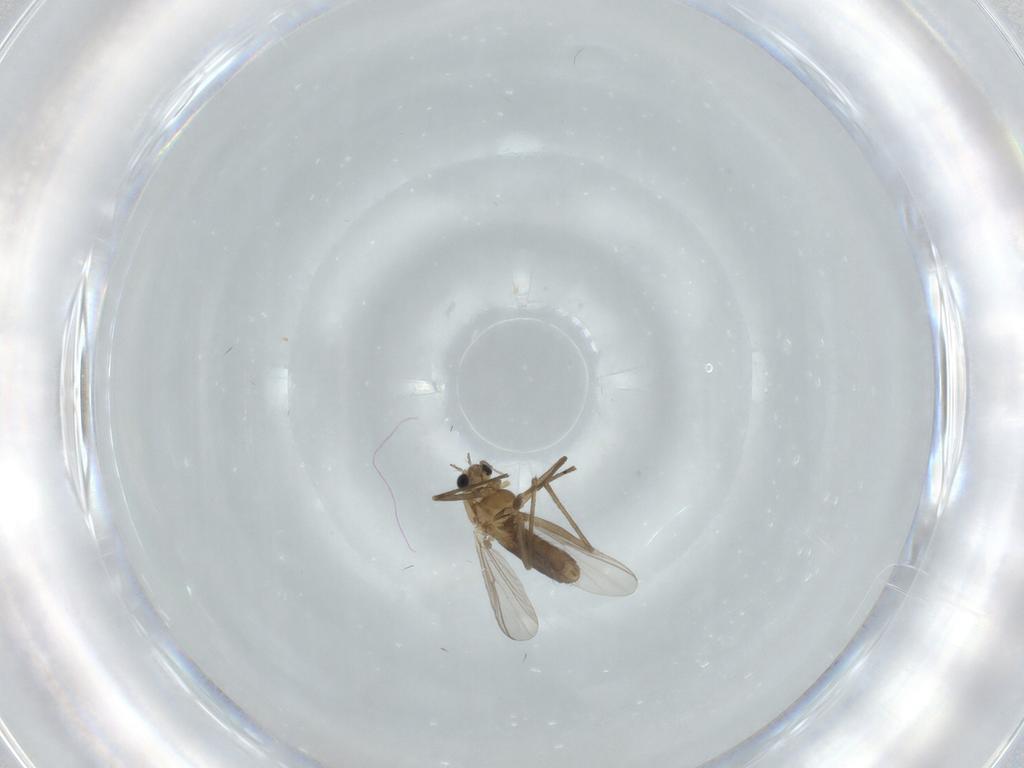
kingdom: Animalia
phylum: Arthropoda
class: Insecta
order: Diptera
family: Chironomidae
